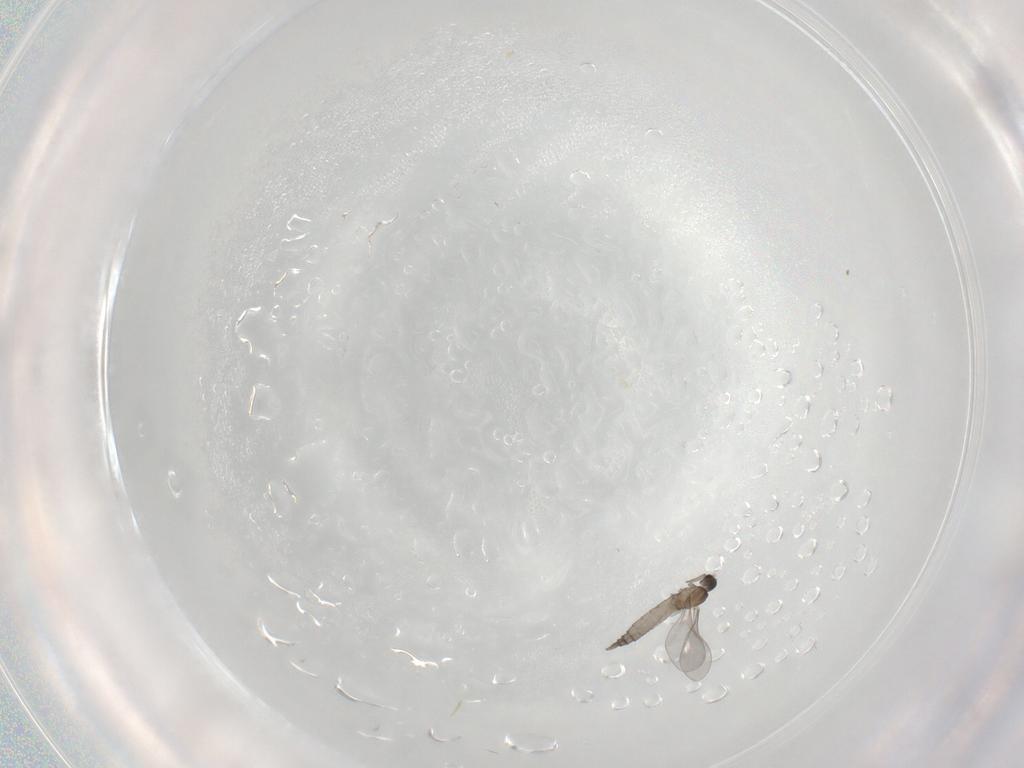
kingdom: Animalia
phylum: Arthropoda
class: Insecta
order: Diptera
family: Cecidomyiidae
